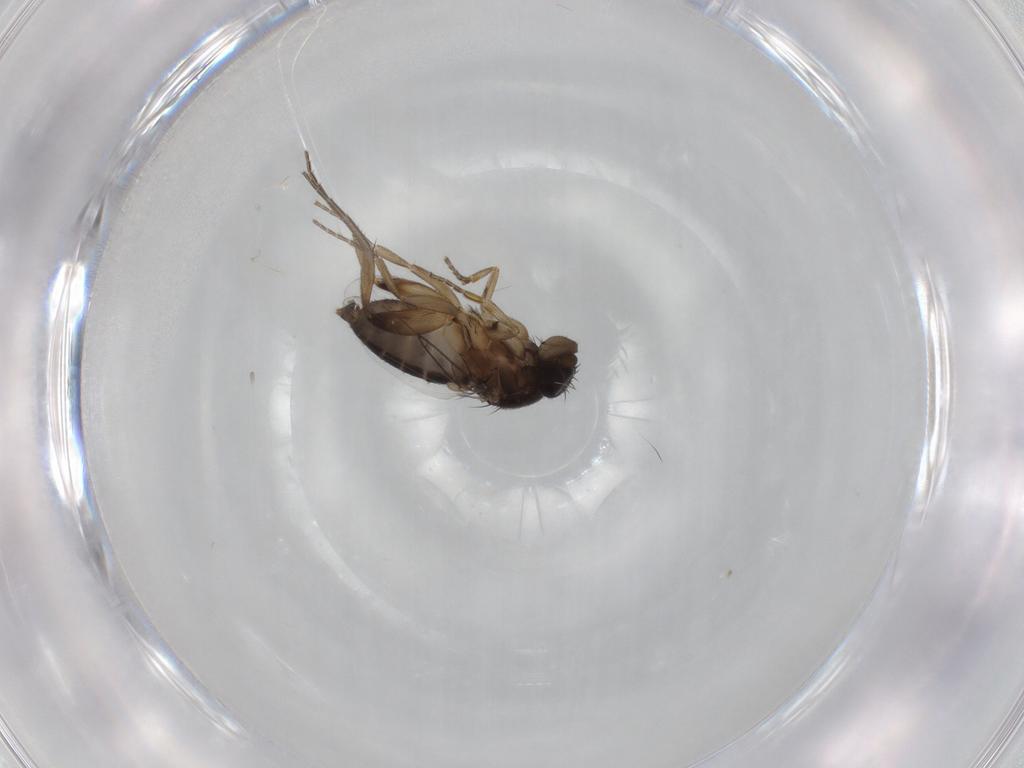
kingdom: Animalia
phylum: Arthropoda
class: Insecta
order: Diptera
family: Phoridae
